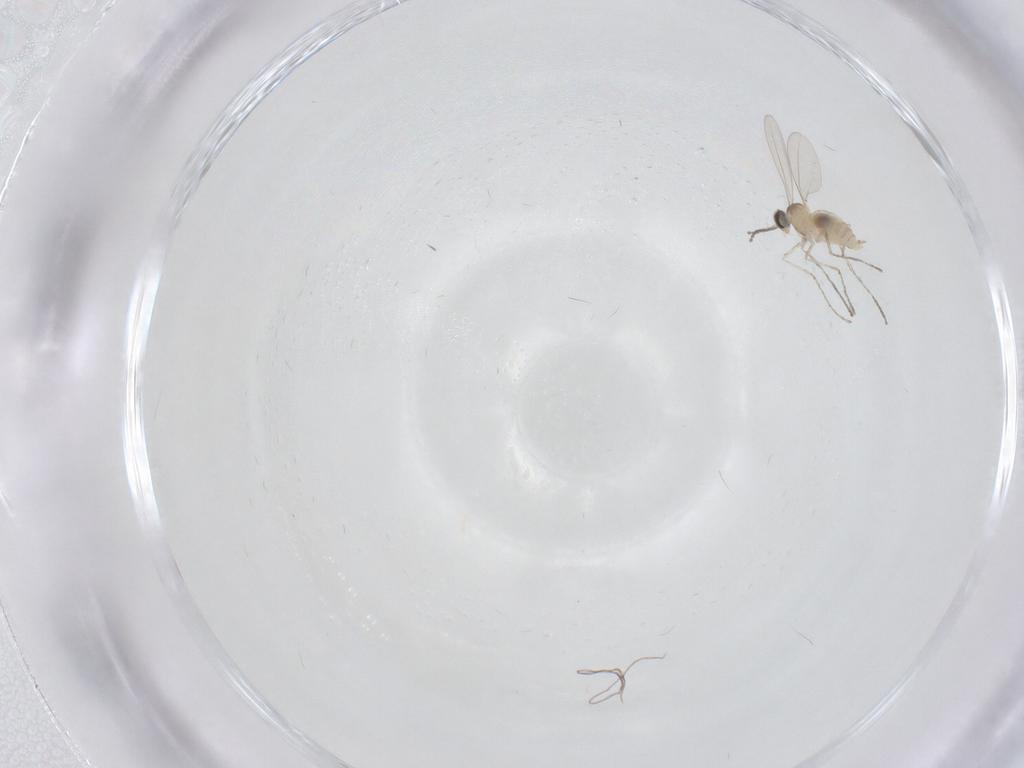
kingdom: Animalia
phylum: Arthropoda
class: Insecta
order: Diptera
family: Cecidomyiidae
